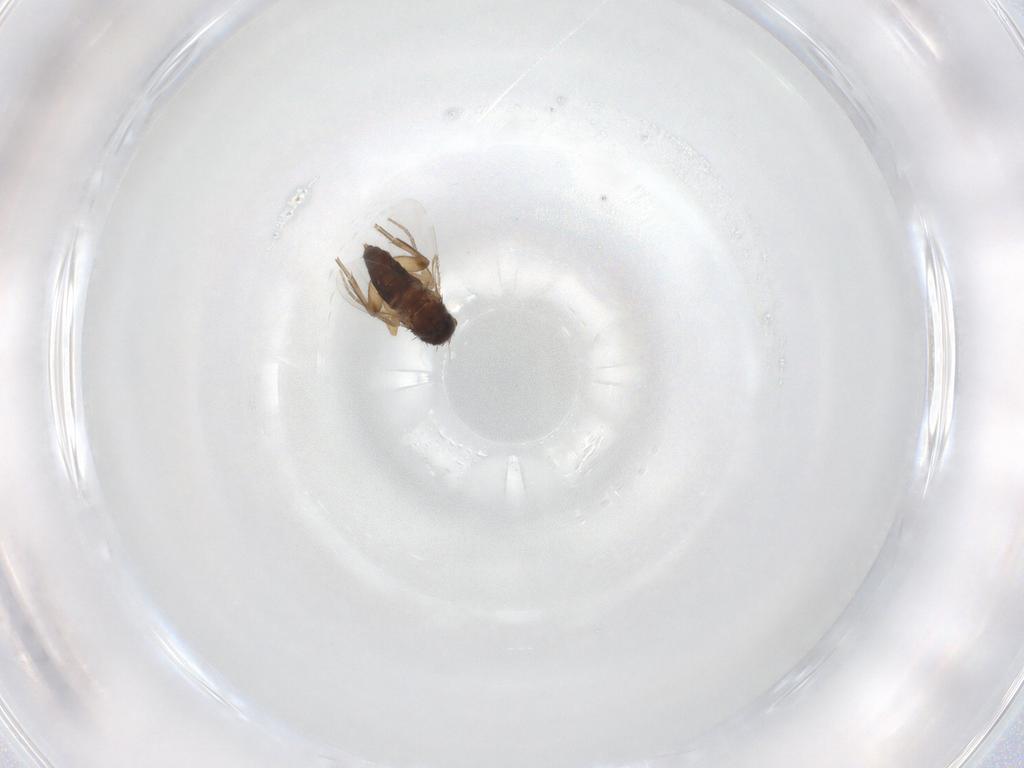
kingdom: Animalia
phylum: Arthropoda
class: Insecta
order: Diptera
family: Phoridae
